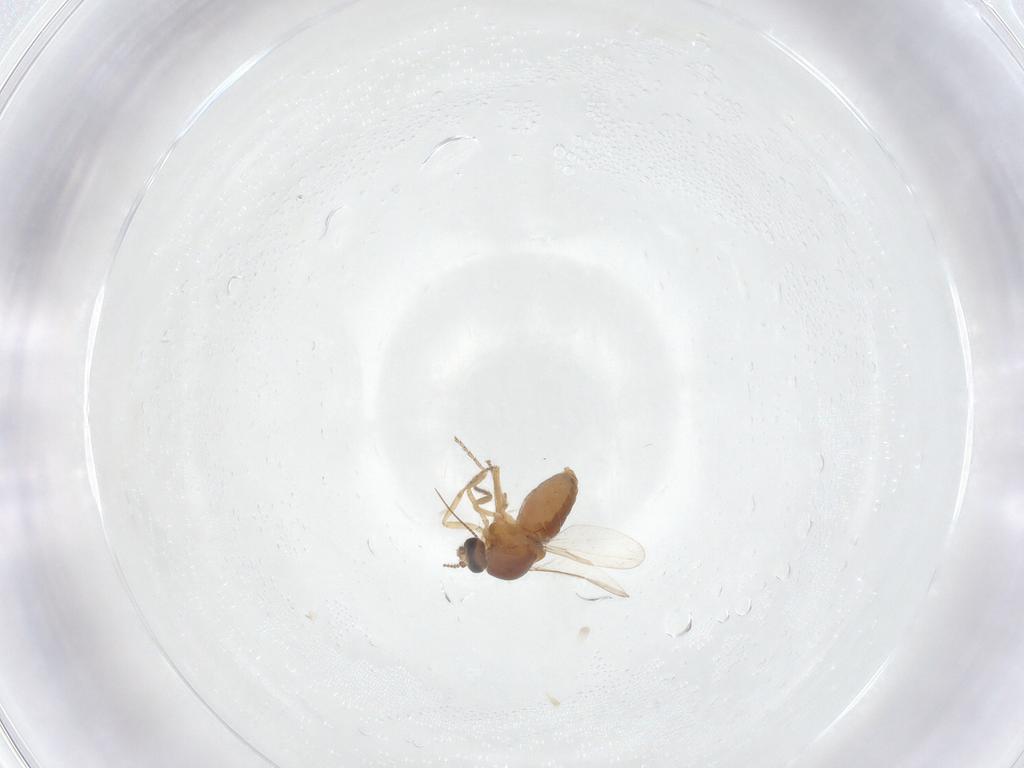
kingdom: Animalia
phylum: Arthropoda
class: Insecta
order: Diptera
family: Ceratopogonidae
